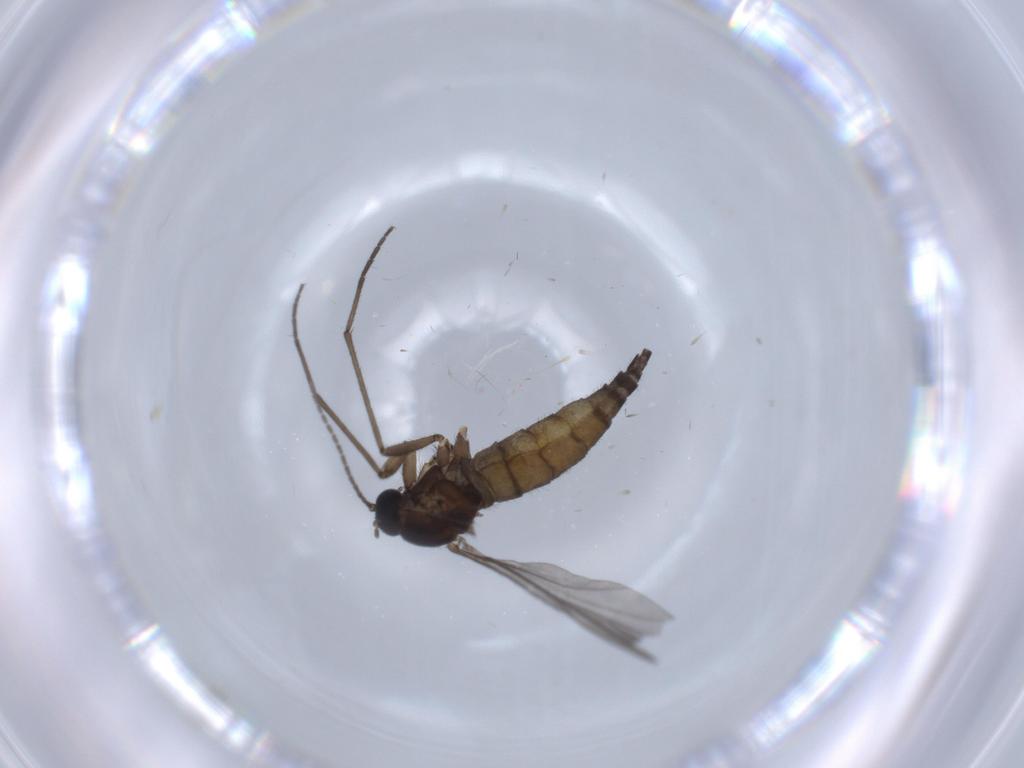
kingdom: Animalia
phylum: Arthropoda
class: Insecta
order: Diptera
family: Sciaridae
